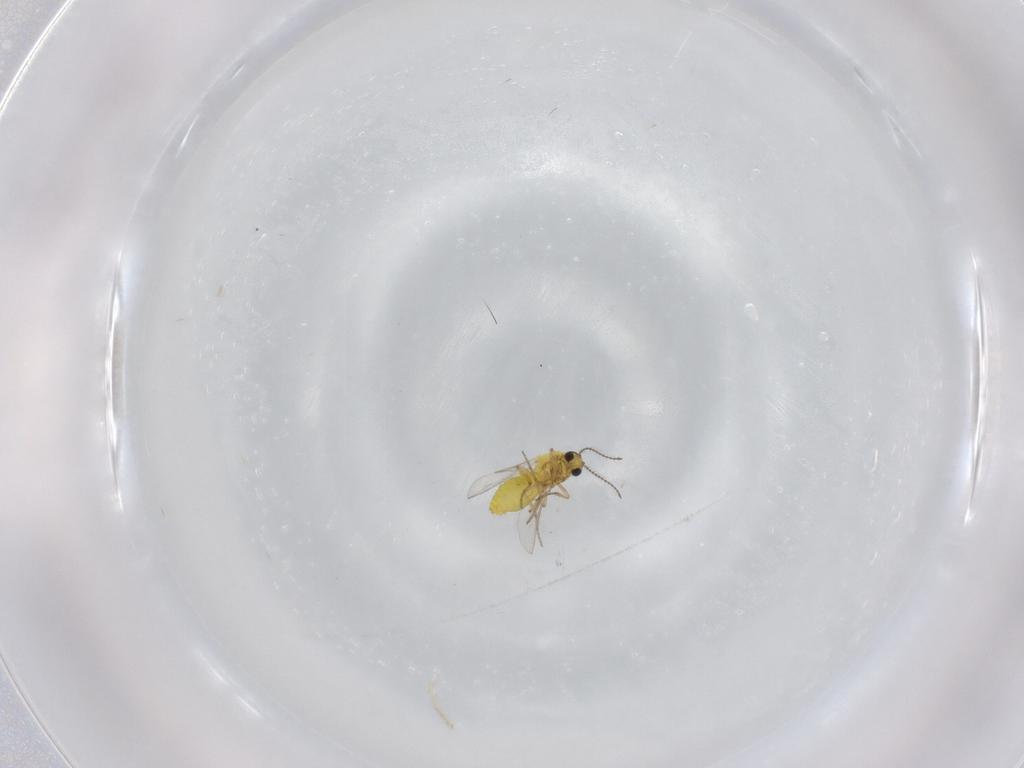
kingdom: Animalia
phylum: Arthropoda
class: Insecta
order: Diptera
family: Ceratopogonidae
